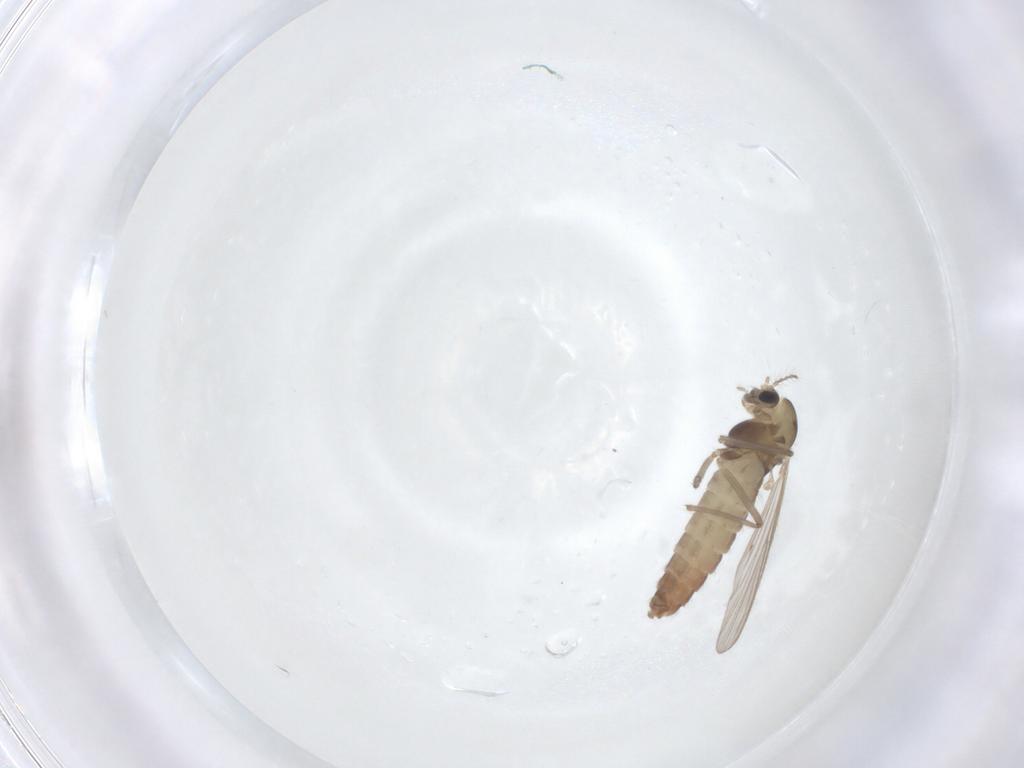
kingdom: Animalia
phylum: Arthropoda
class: Insecta
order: Diptera
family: Chironomidae
